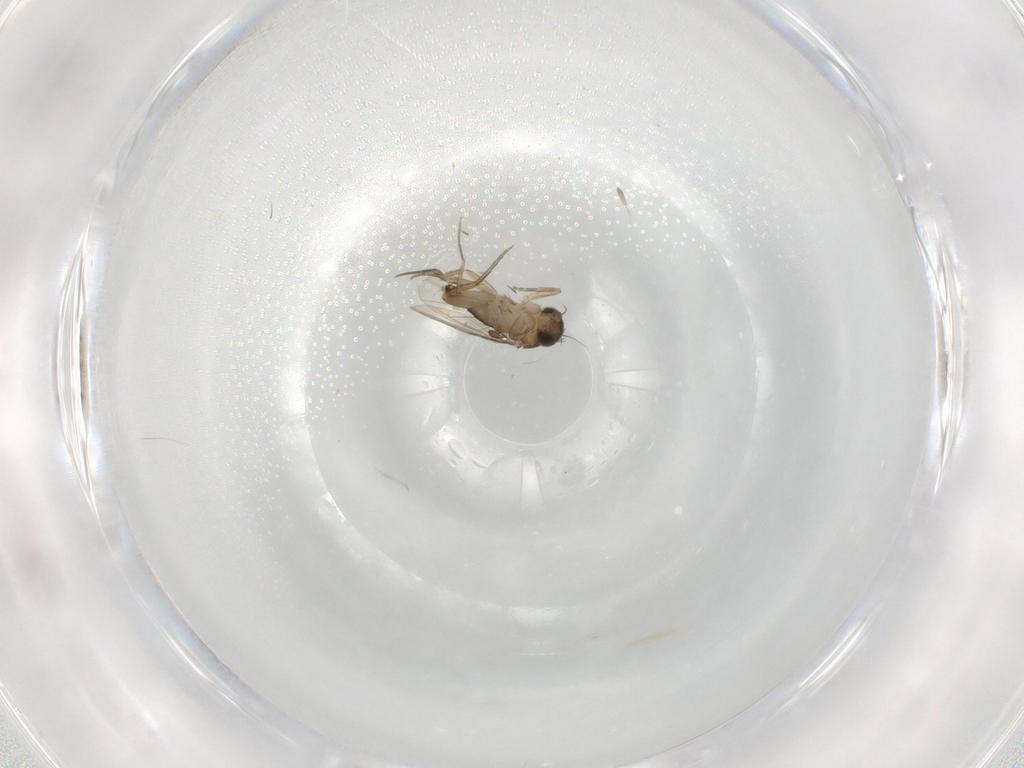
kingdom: Animalia
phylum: Arthropoda
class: Insecta
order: Diptera
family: Phoridae
